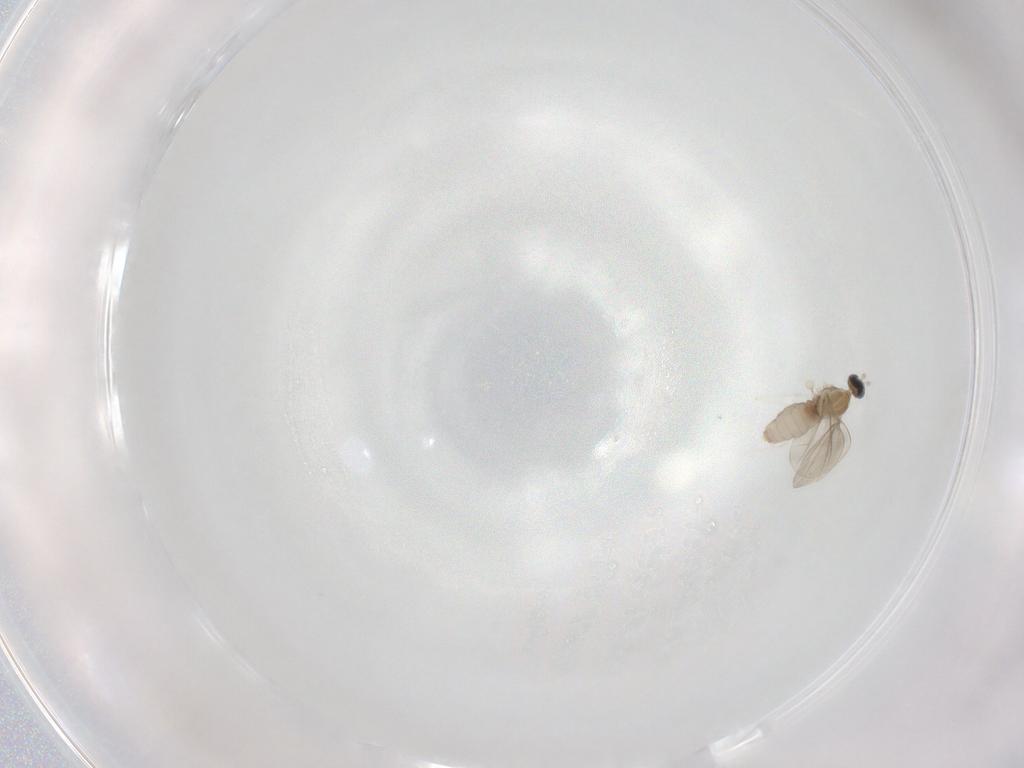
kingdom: Animalia
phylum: Arthropoda
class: Insecta
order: Diptera
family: Cecidomyiidae
